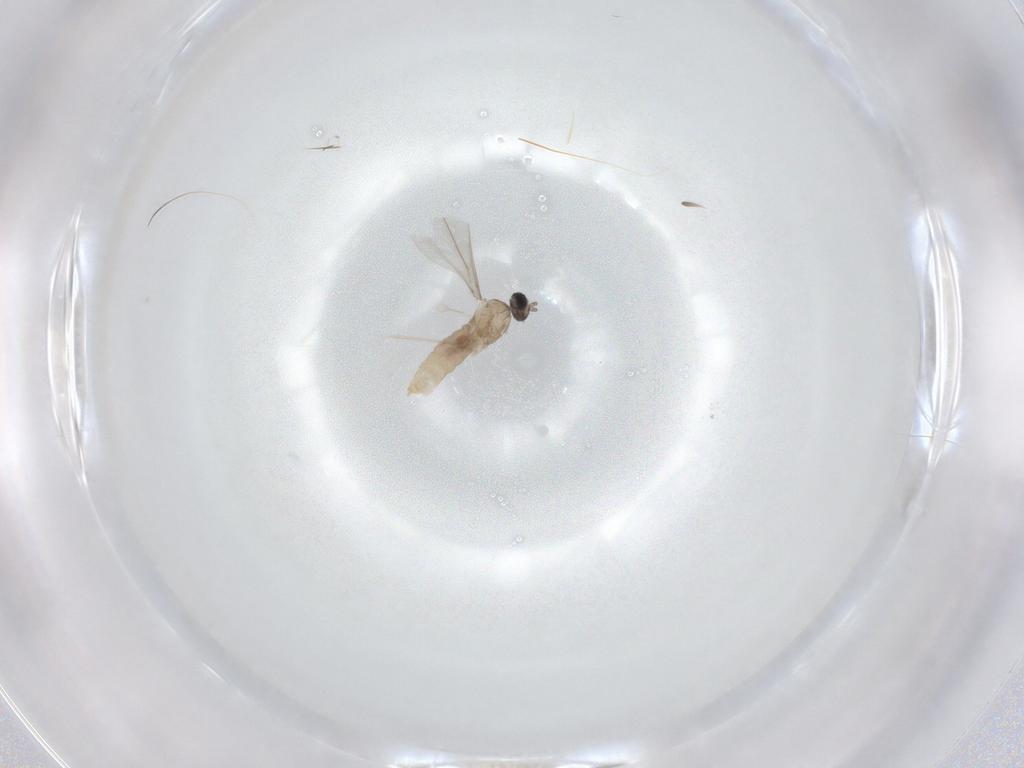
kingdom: Animalia
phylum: Arthropoda
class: Insecta
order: Diptera
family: Cecidomyiidae
